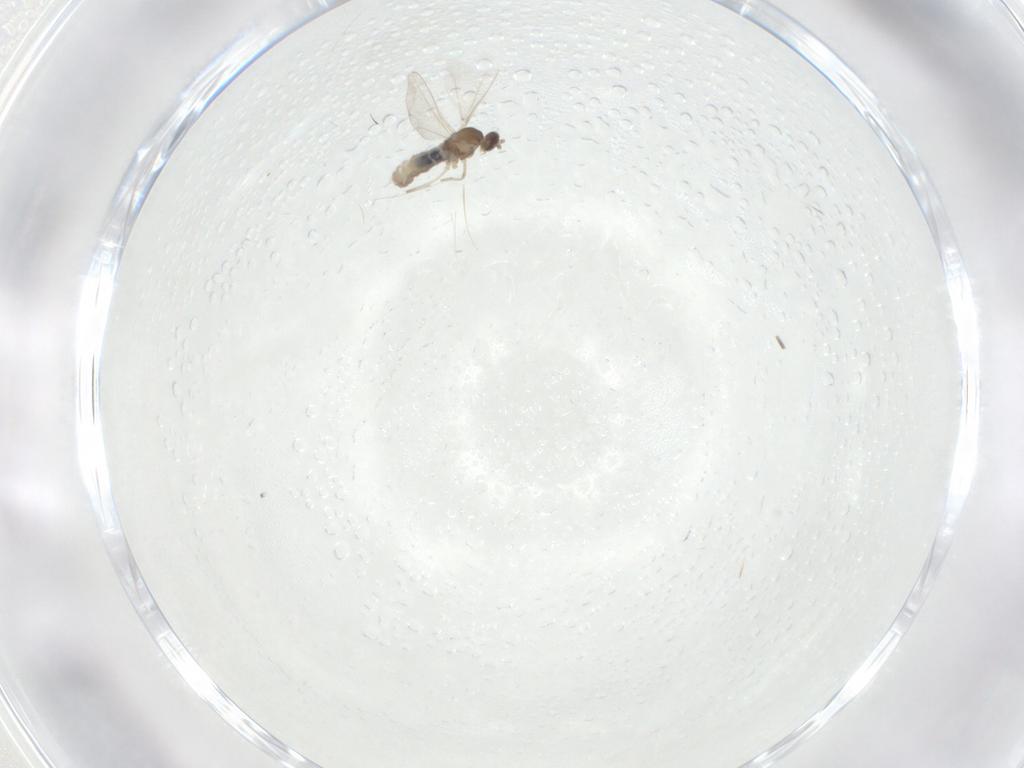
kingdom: Animalia
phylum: Arthropoda
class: Insecta
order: Diptera
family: Cecidomyiidae
